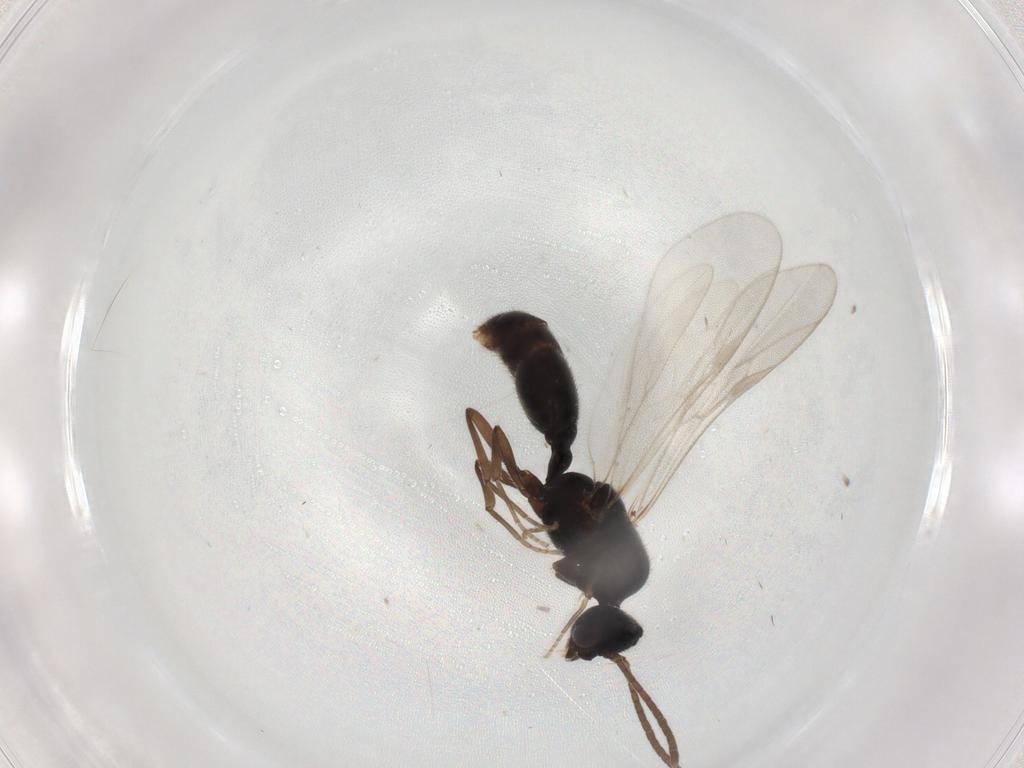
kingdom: Animalia
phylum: Arthropoda
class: Insecta
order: Hymenoptera
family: Formicidae
